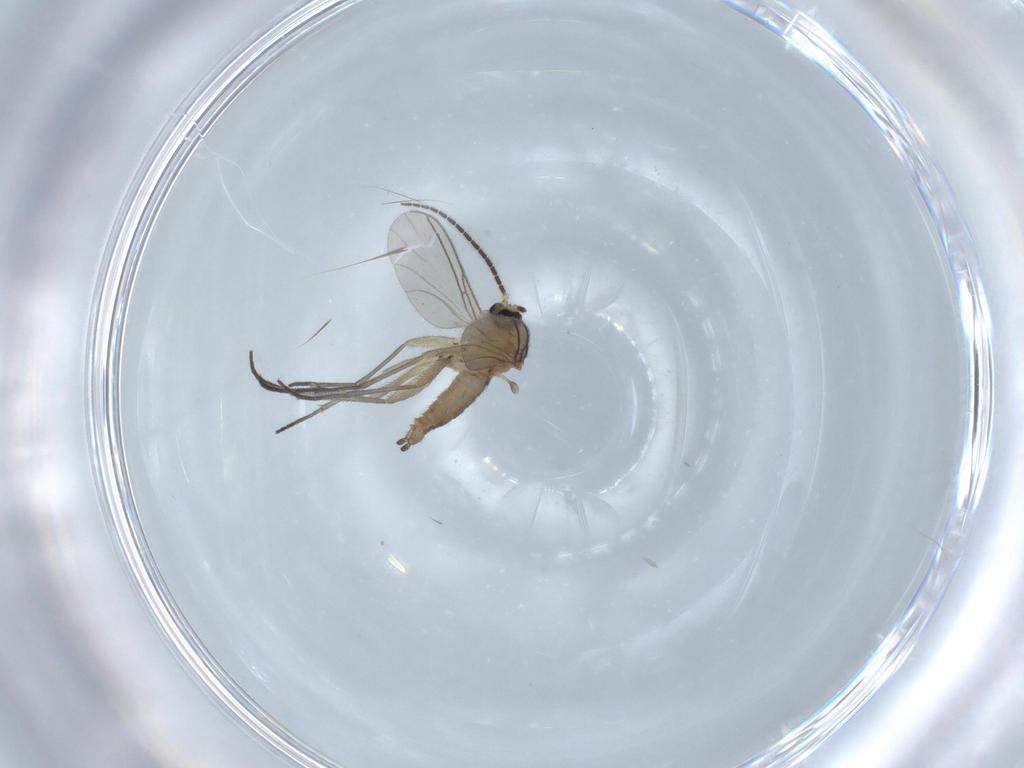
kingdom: Animalia
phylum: Arthropoda
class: Insecta
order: Diptera
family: Sciaridae
